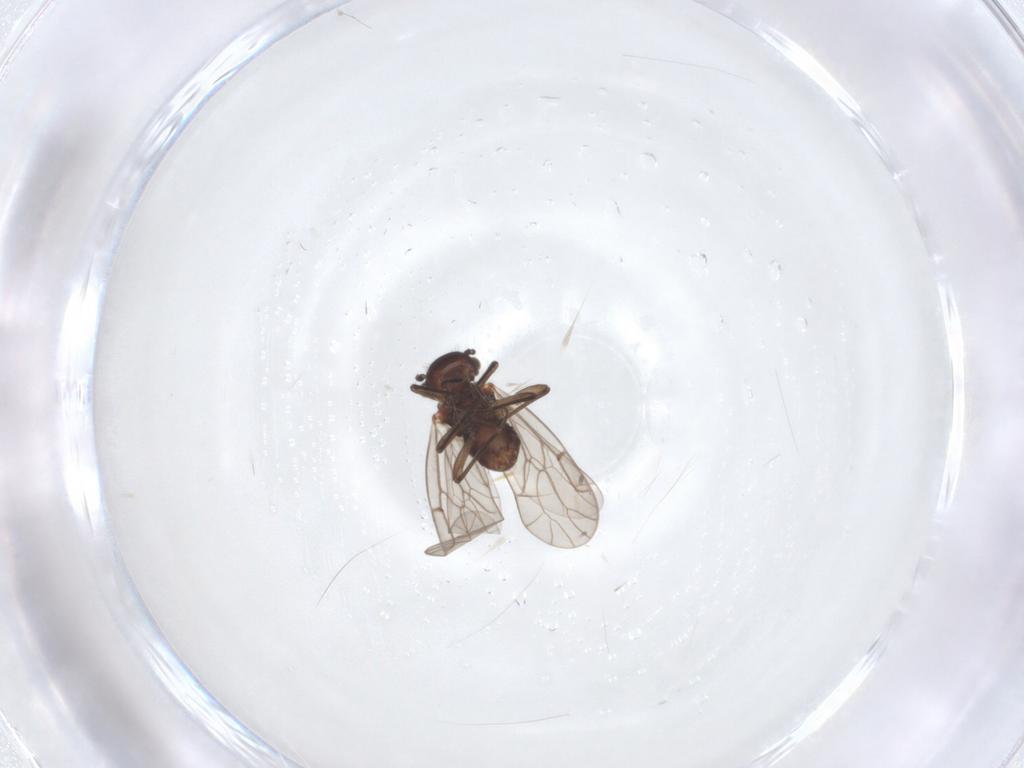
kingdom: Animalia
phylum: Arthropoda
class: Insecta
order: Psocodea
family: Ectopsocidae
